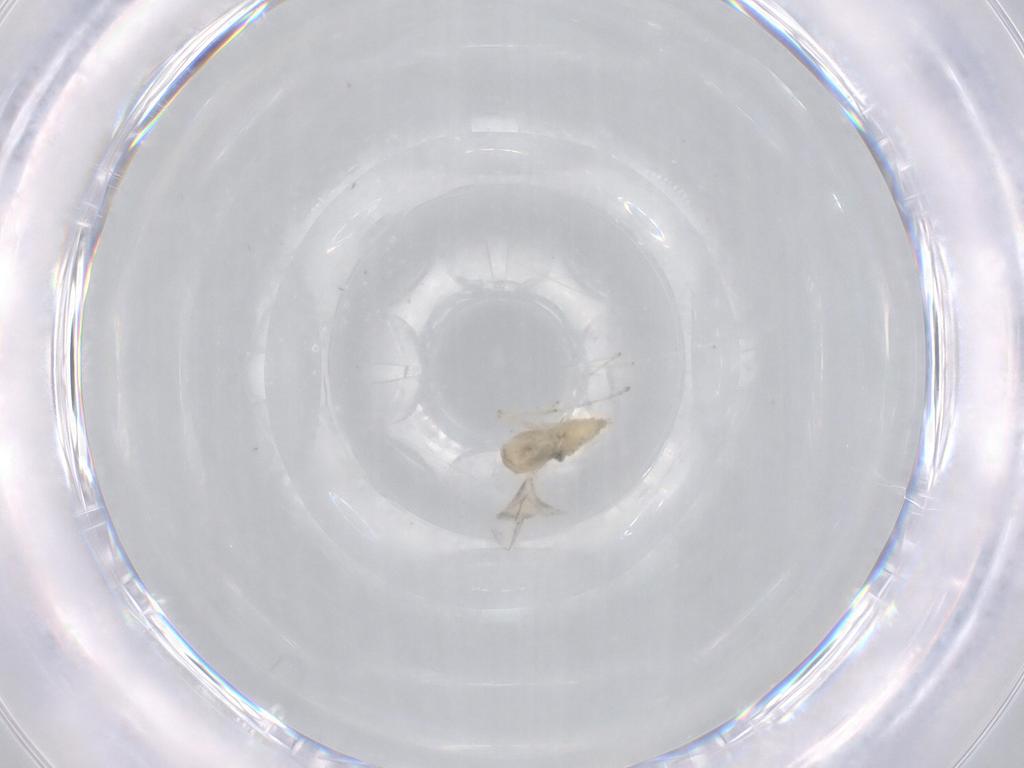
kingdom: Animalia
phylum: Arthropoda
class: Insecta
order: Diptera
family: Cecidomyiidae
